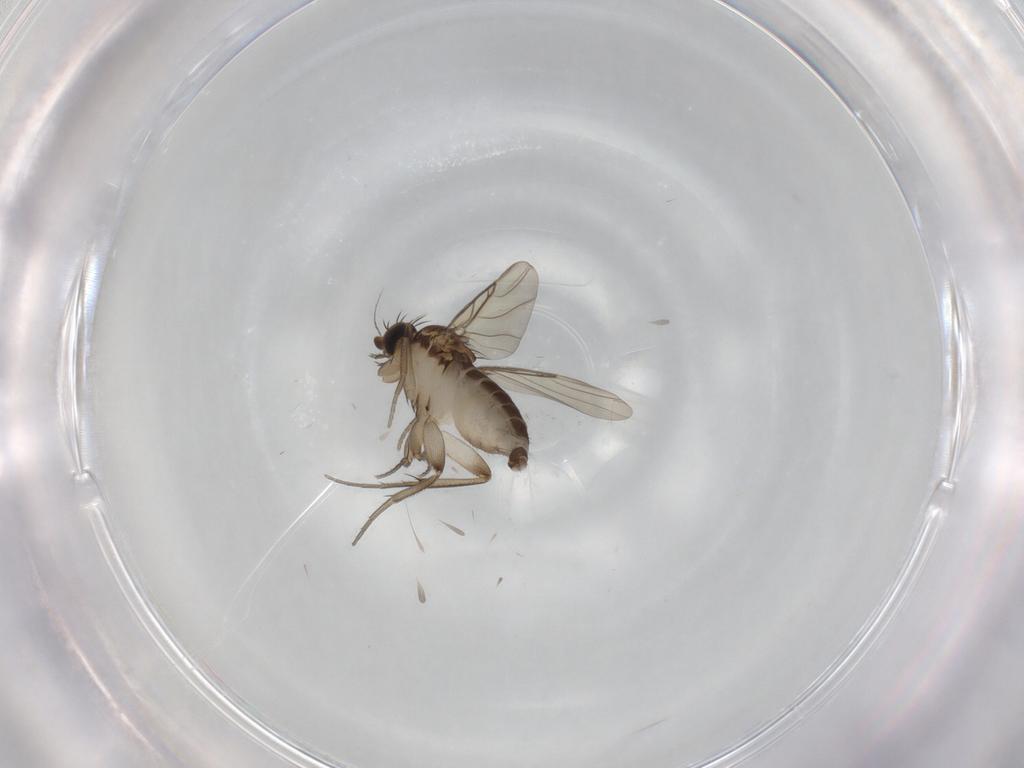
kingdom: Animalia
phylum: Arthropoda
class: Insecta
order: Diptera
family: Phoridae
